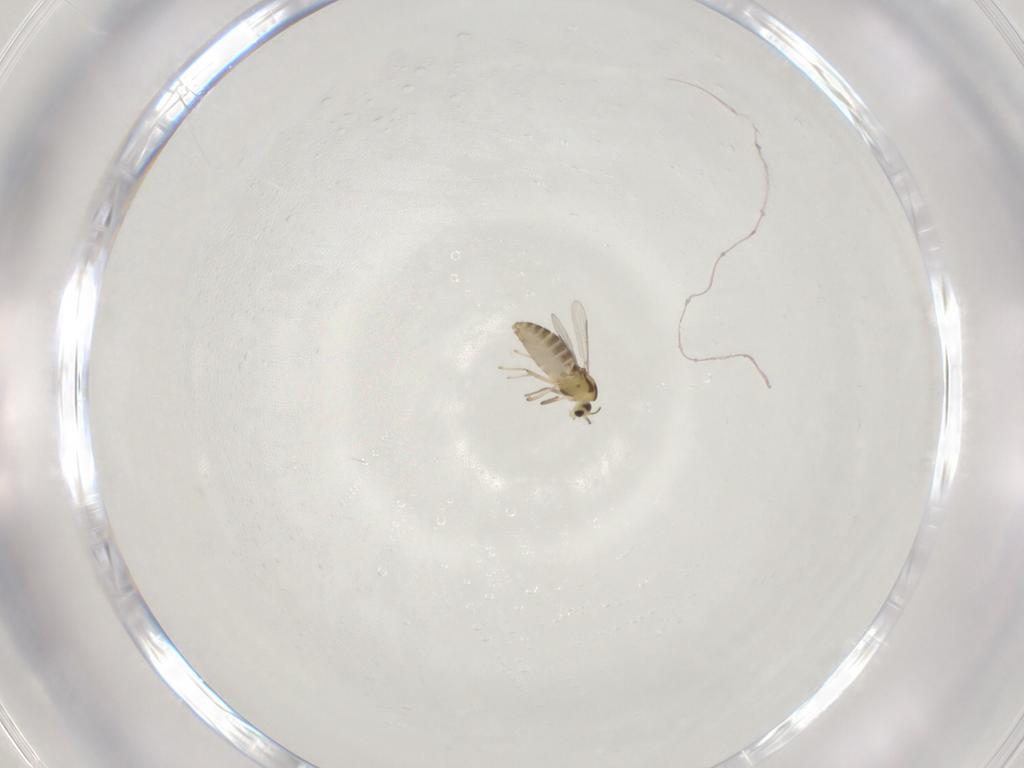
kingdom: Animalia
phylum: Arthropoda
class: Insecta
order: Diptera
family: Chironomidae
